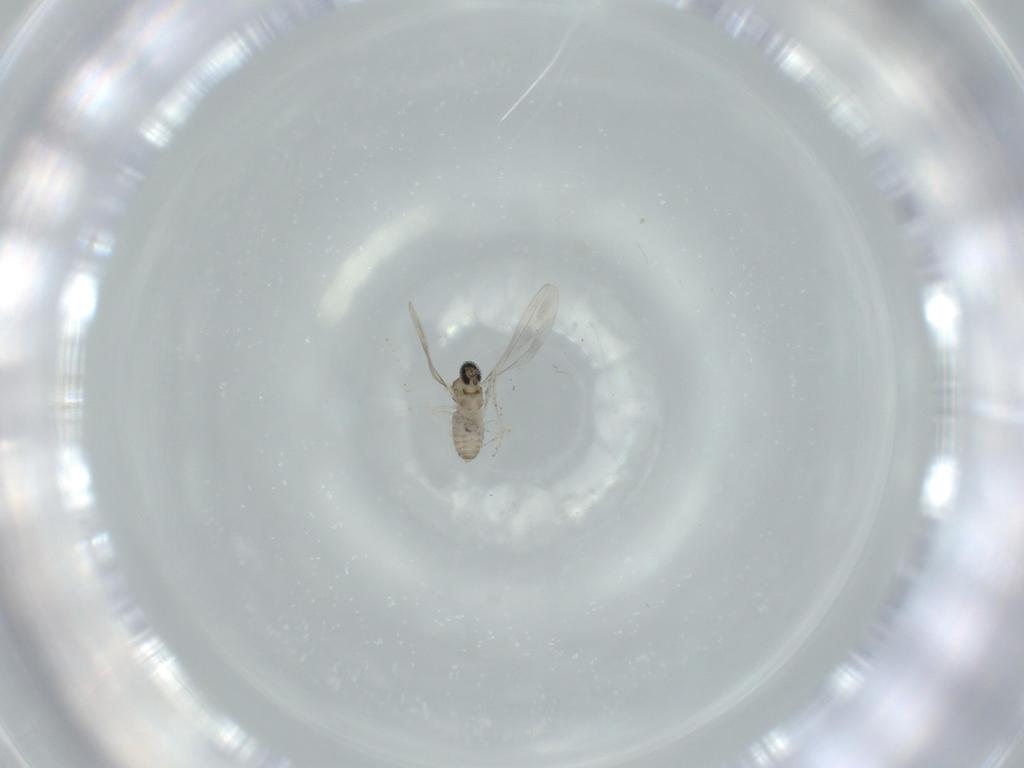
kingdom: Animalia
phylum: Arthropoda
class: Insecta
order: Diptera
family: Cecidomyiidae
